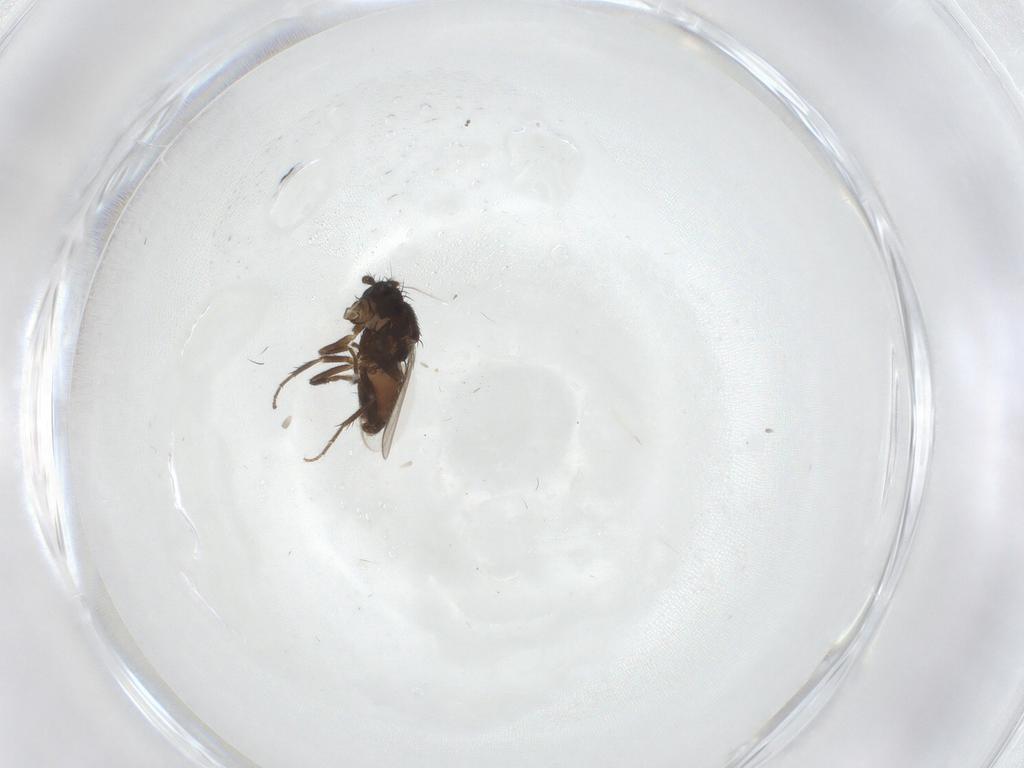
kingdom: Animalia
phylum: Arthropoda
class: Insecta
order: Diptera
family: Sphaeroceridae
